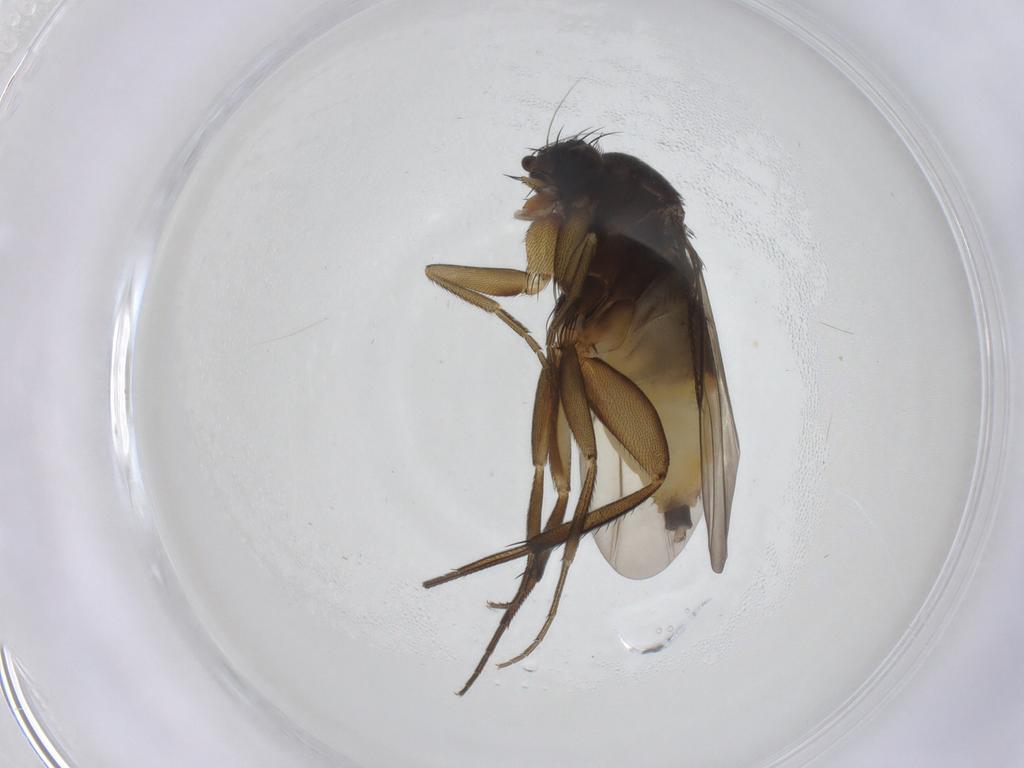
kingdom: Animalia
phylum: Arthropoda
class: Insecta
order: Diptera
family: Phoridae
